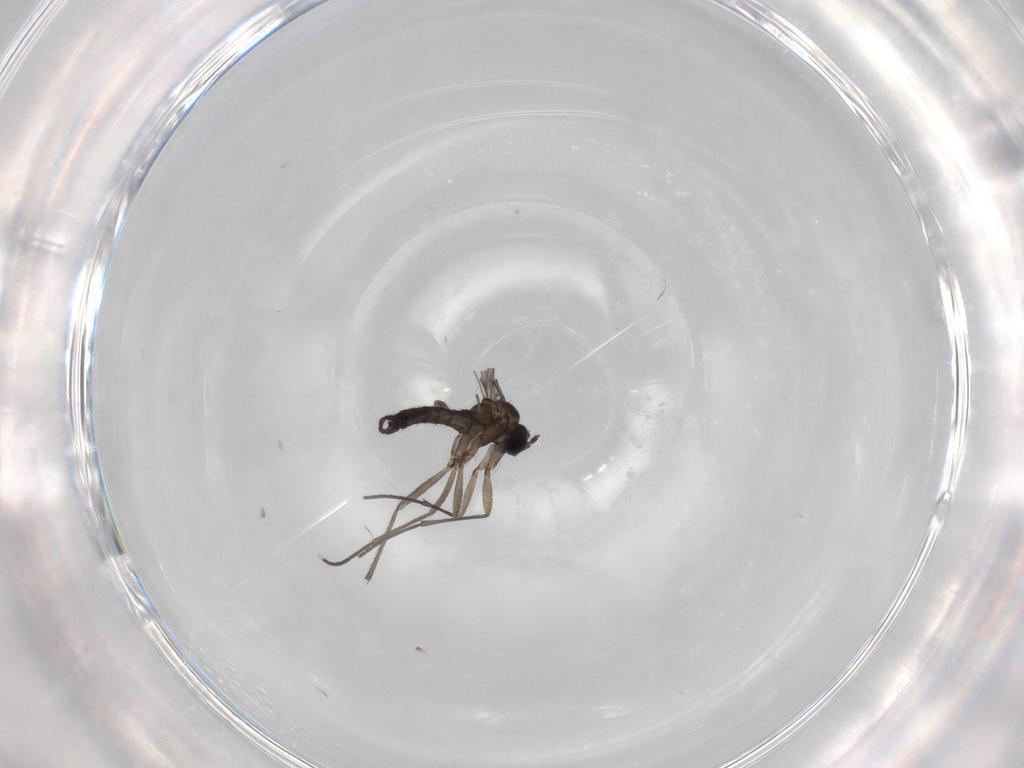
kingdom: Animalia
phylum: Arthropoda
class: Insecta
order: Diptera
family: Sciaridae
